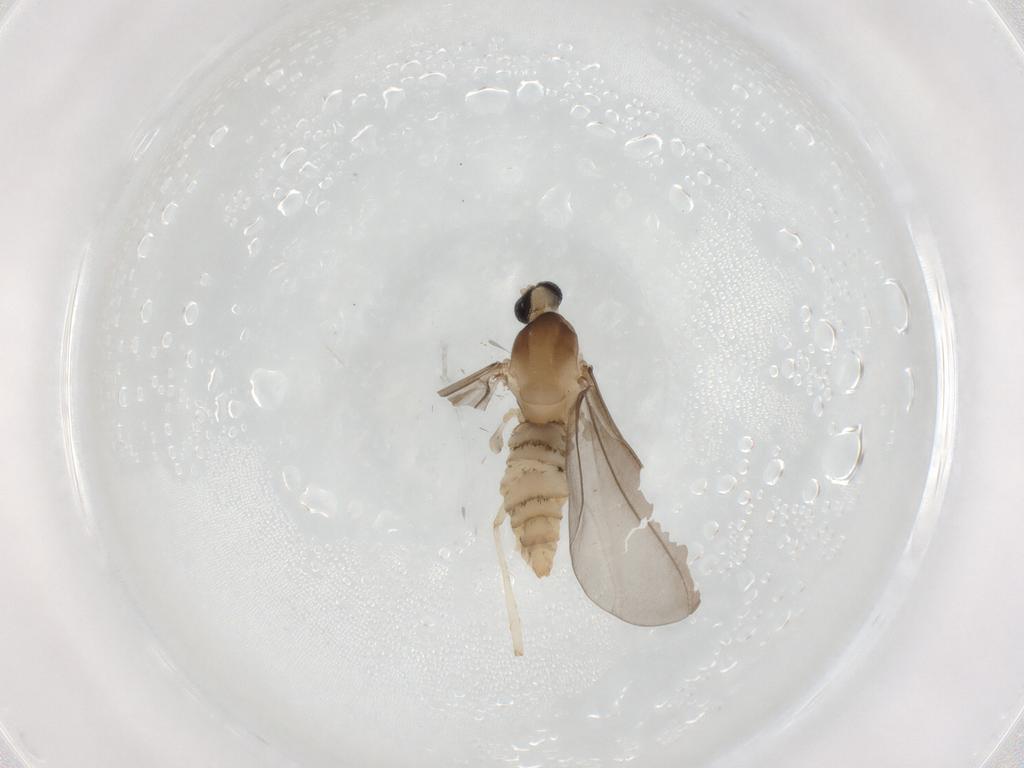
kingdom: Animalia
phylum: Arthropoda
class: Insecta
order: Diptera
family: Cecidomyiidae
